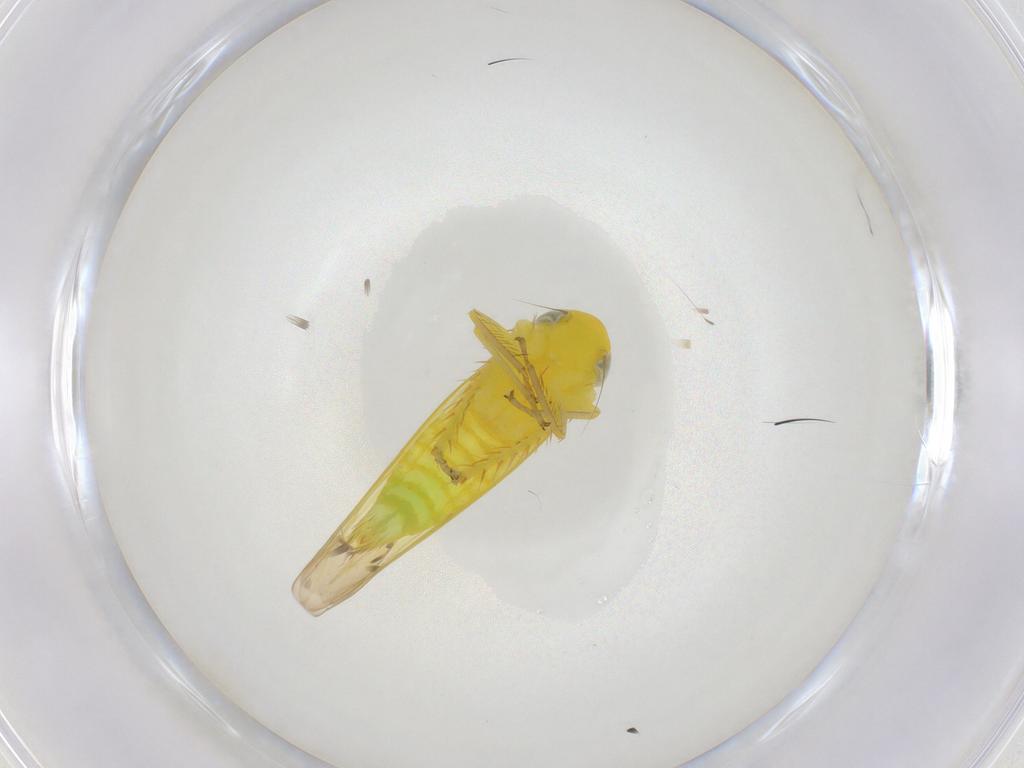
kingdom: Animalia
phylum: Arthropoda
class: Insecta
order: Hemiptera
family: Cicadellidae
